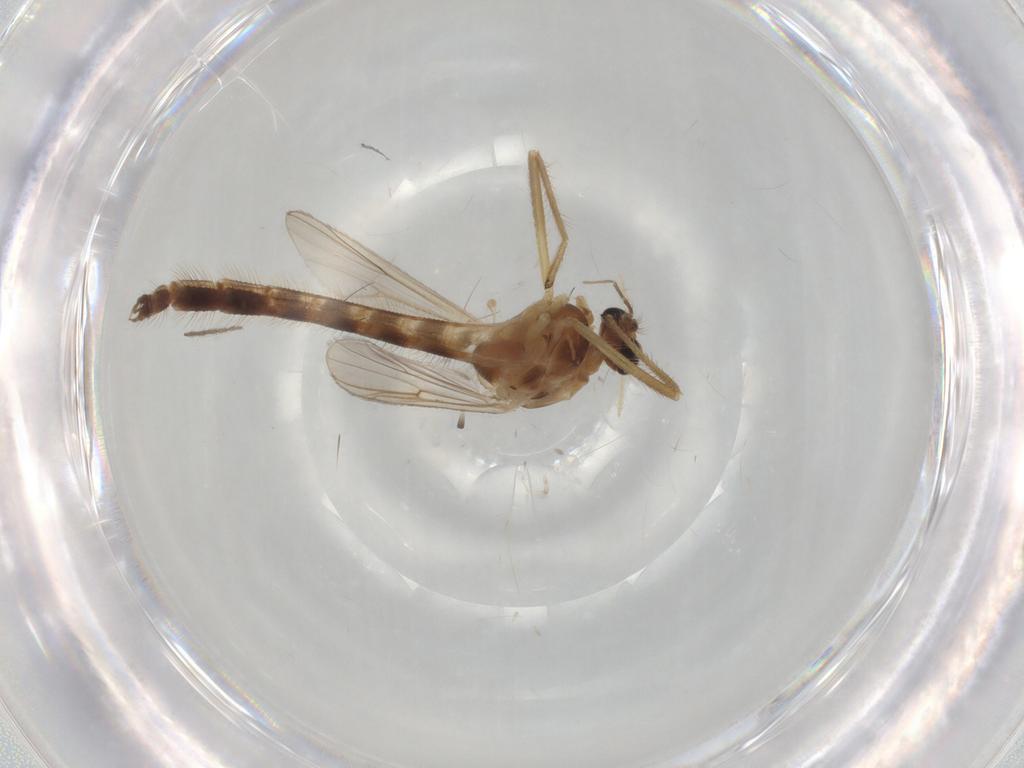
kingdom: Animalia
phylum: Arthropoda
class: Insecta
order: Diptera
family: Chironomidae
